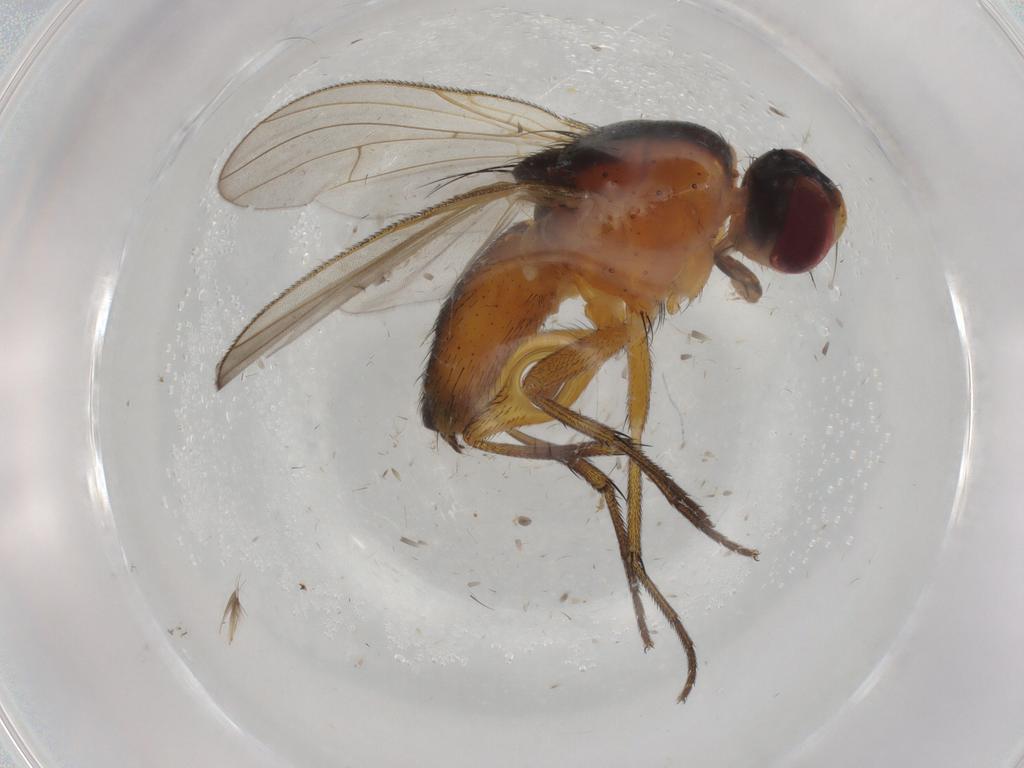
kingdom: Animalia
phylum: Arthropoda
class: Insecta
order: Diptera
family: Muscidae
